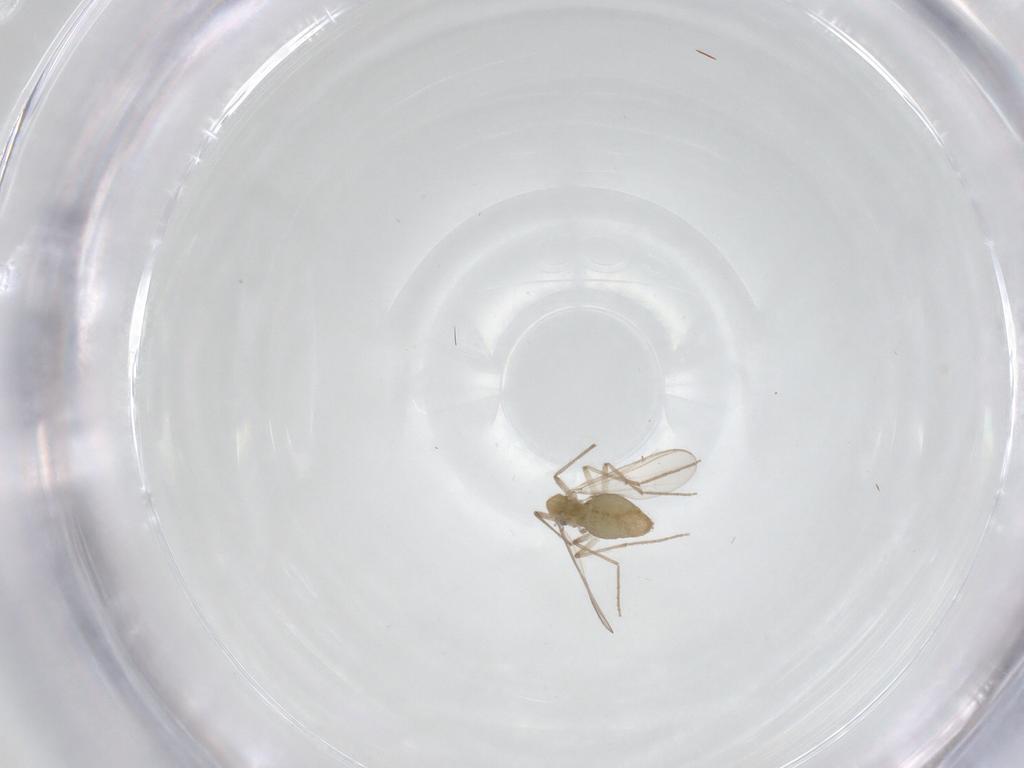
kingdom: Animalia
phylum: Arthropoda
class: Insecta
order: Diptera
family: Chironomidae
